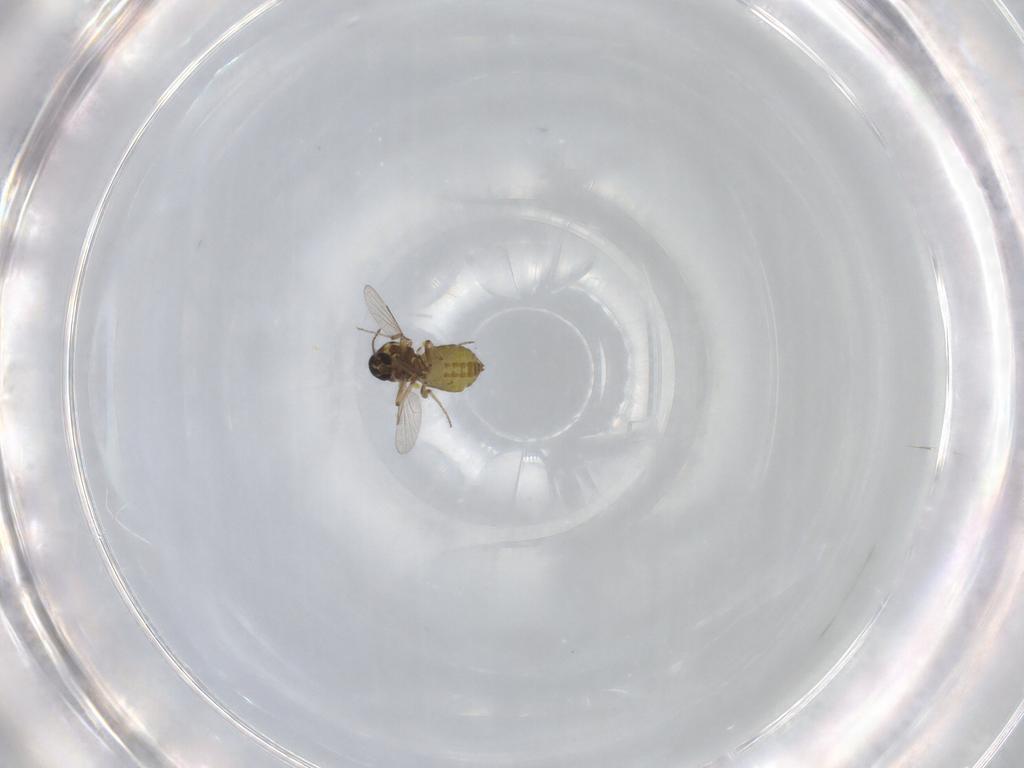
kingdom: Animalia
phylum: Arthropoda
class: Insecta
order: Diptera
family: Ceratopogonidae
